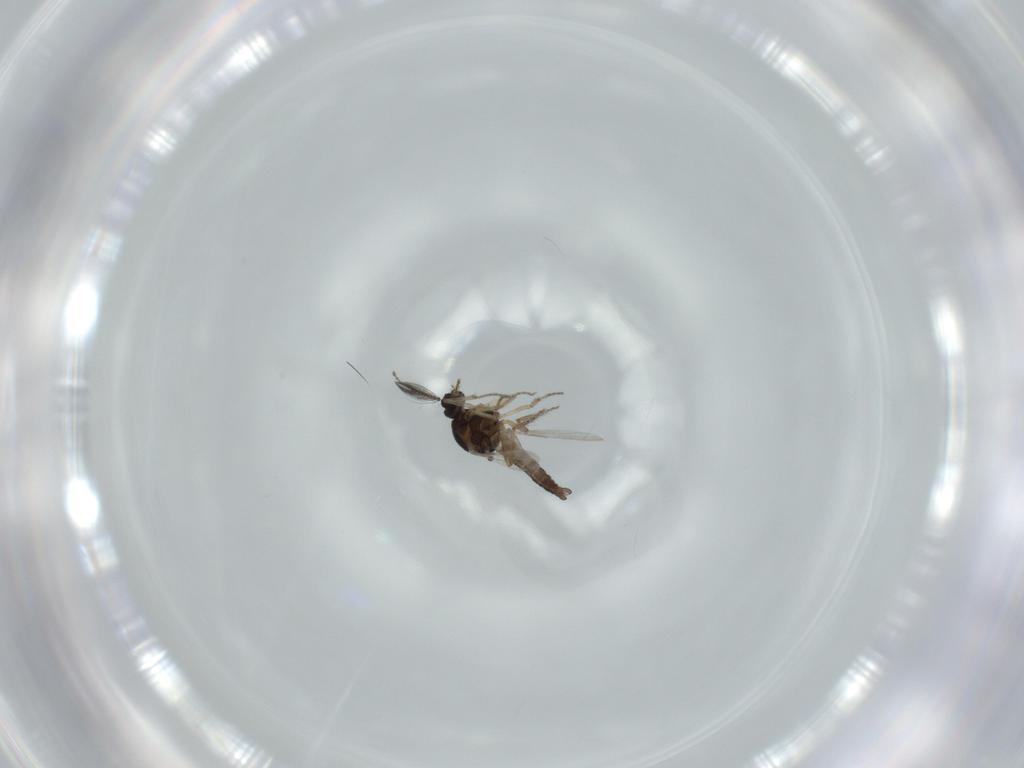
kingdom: Animalia
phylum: Arthropoda
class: Insecta
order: Diptera
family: Ceratopogonidae
